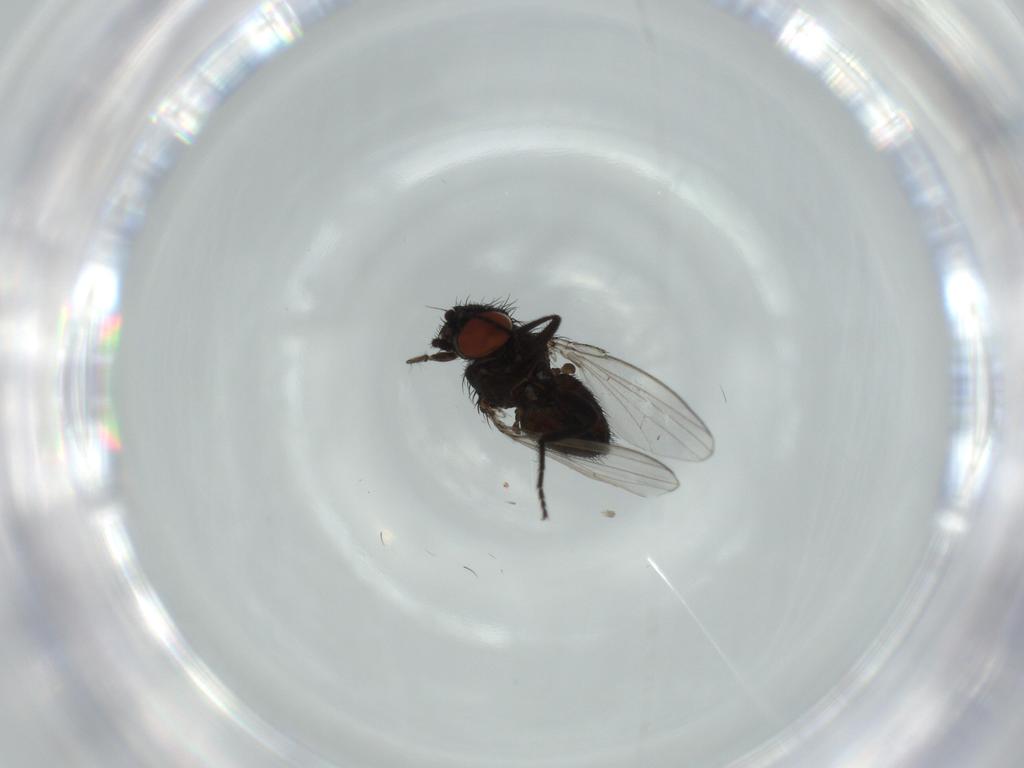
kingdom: Animalia
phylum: Arthropoda
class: Insecta
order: Diptera
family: Milichiidae
